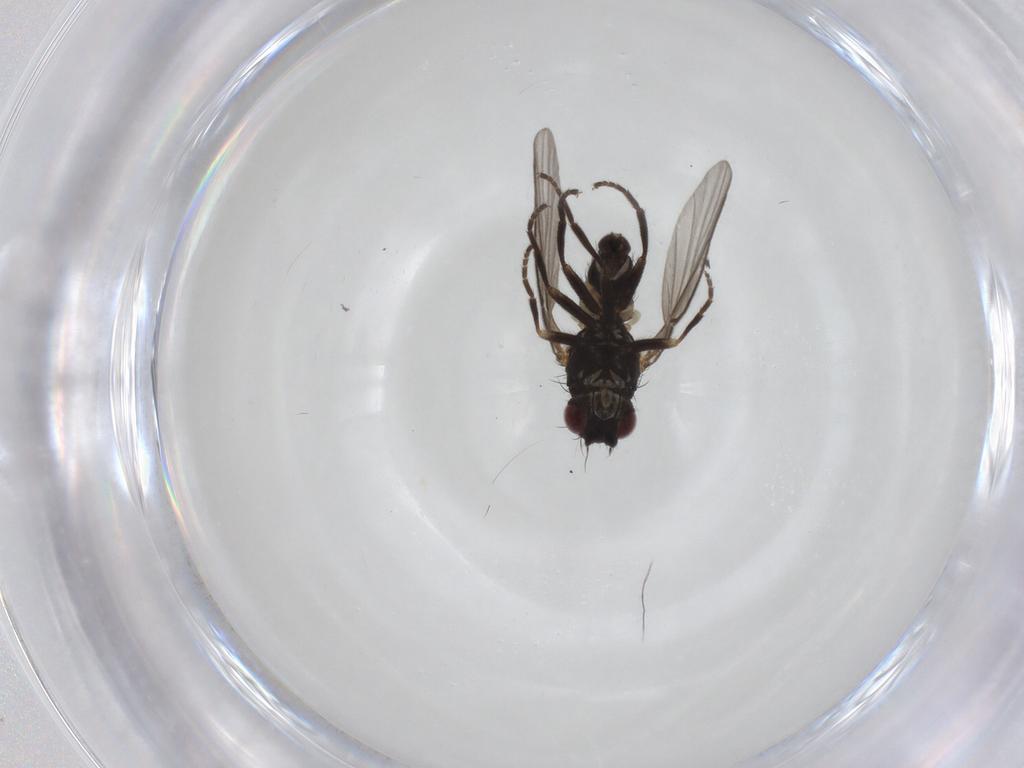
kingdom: Animalia
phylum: Arthropoda
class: Insecta
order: Diptera
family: Agromyzidae
